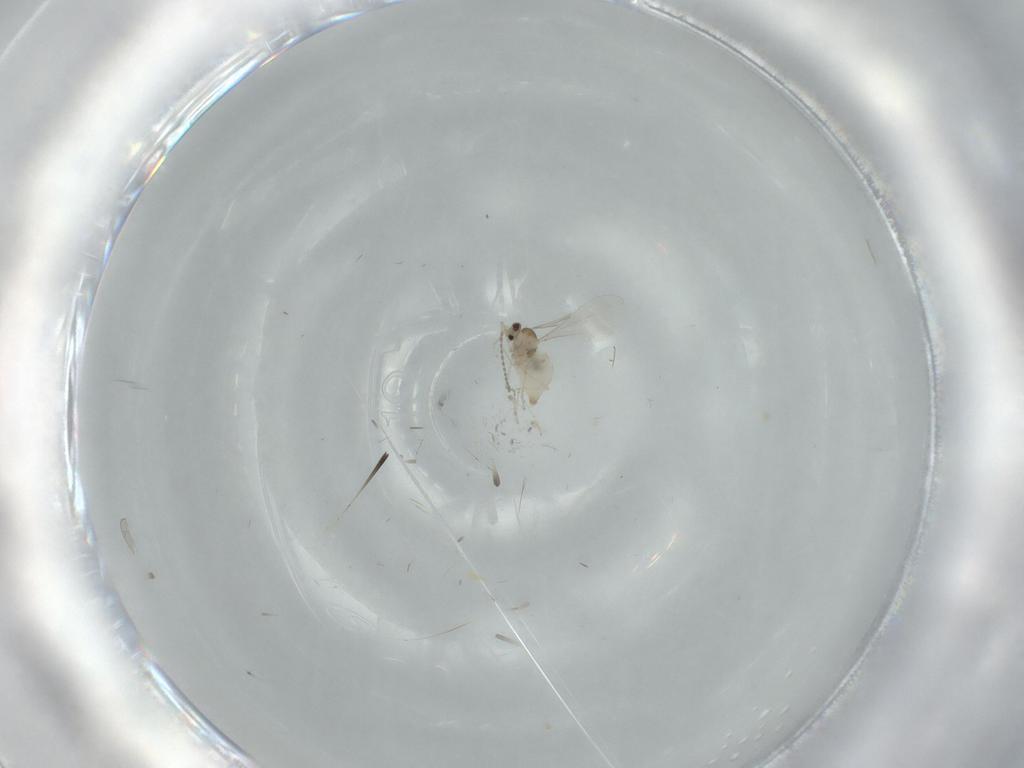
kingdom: Animalia
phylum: Arthropoda
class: Insecta
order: Diptera
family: Cecidomyiidae
